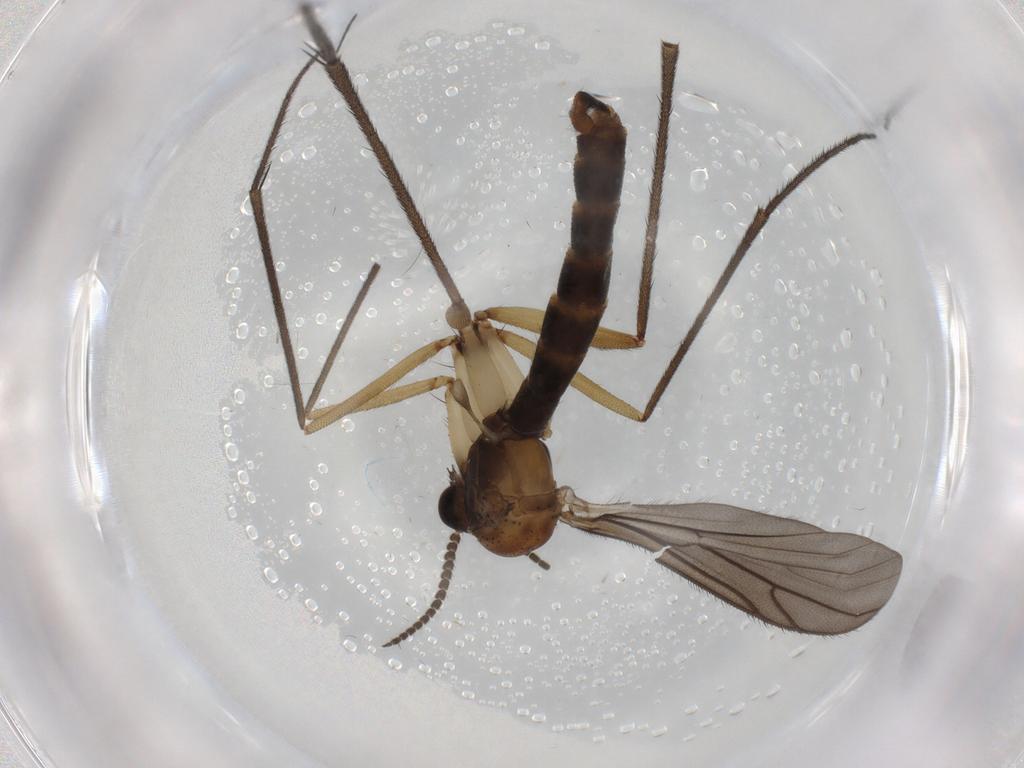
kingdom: Animalia
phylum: Arthropoda
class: Insecta
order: Diptera
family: Ditomyiidae
